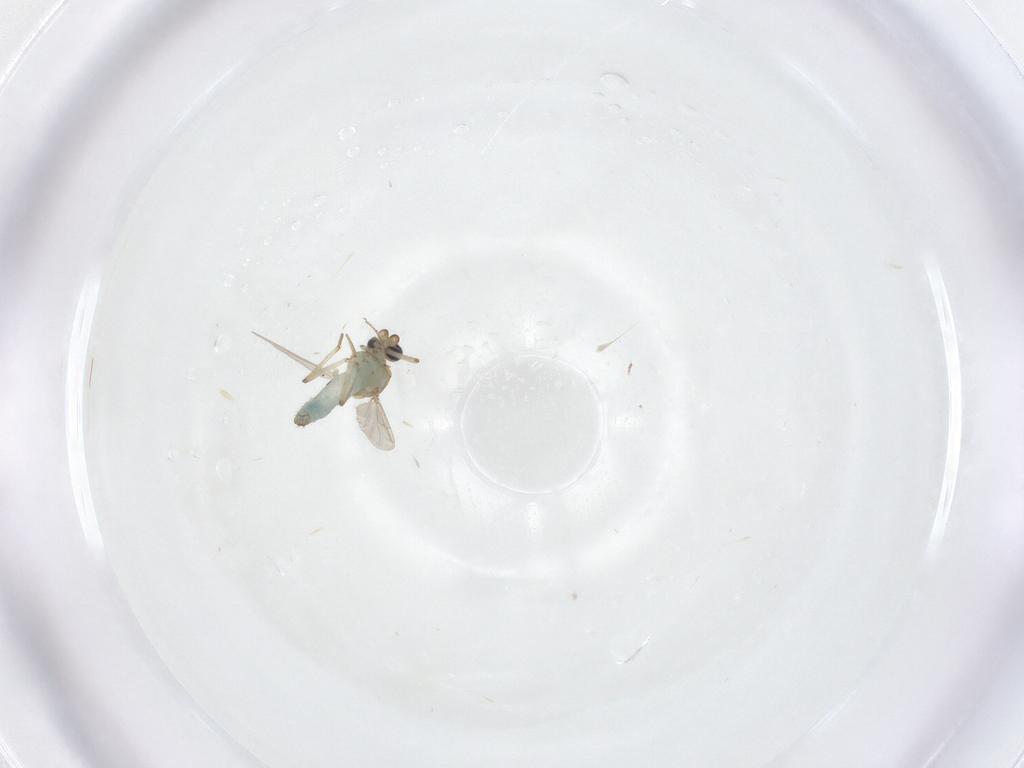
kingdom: Animalia
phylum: Arthropoda
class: Insecta
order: Diptera
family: Ceratopogonidae
